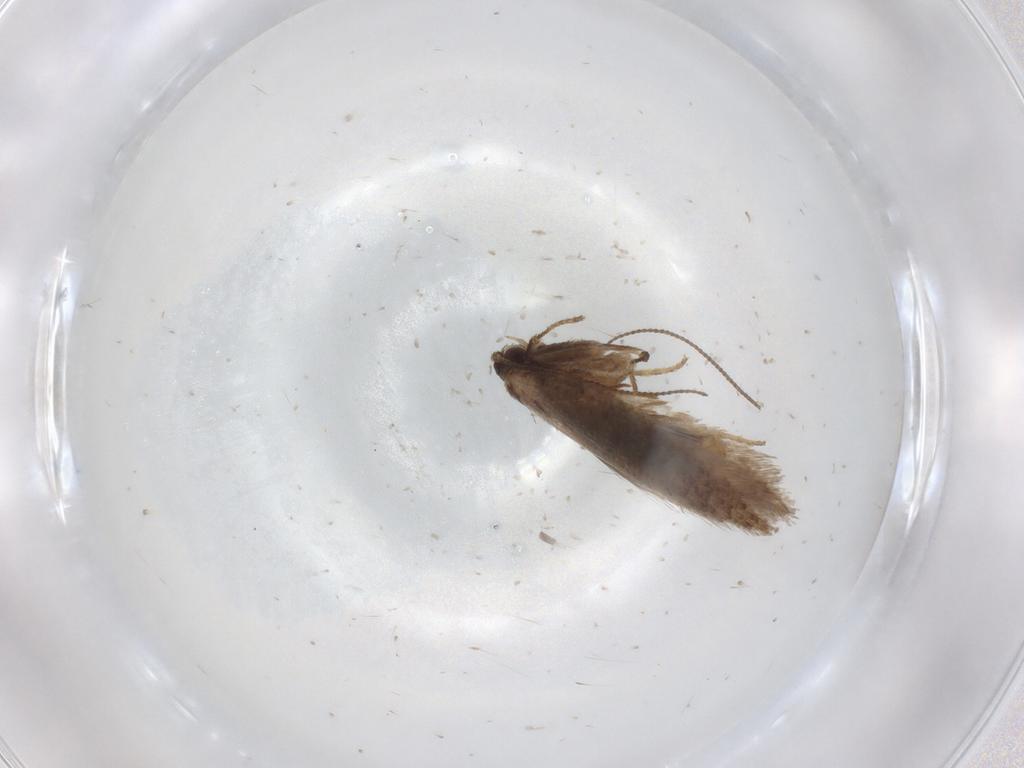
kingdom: Animalia
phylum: Arthropoda
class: Insecta
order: Lepidoptera
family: Nepticulidae
